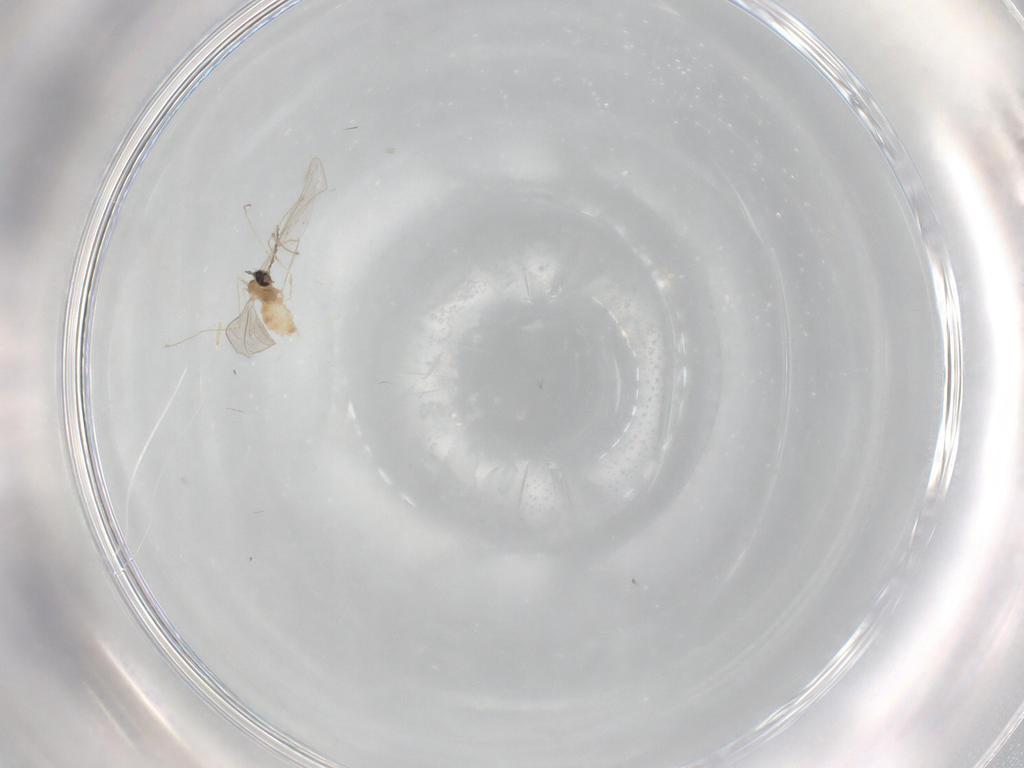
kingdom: Animalia
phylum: Arthropoda
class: Insecta
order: Diptera
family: Cecidomyiidae
